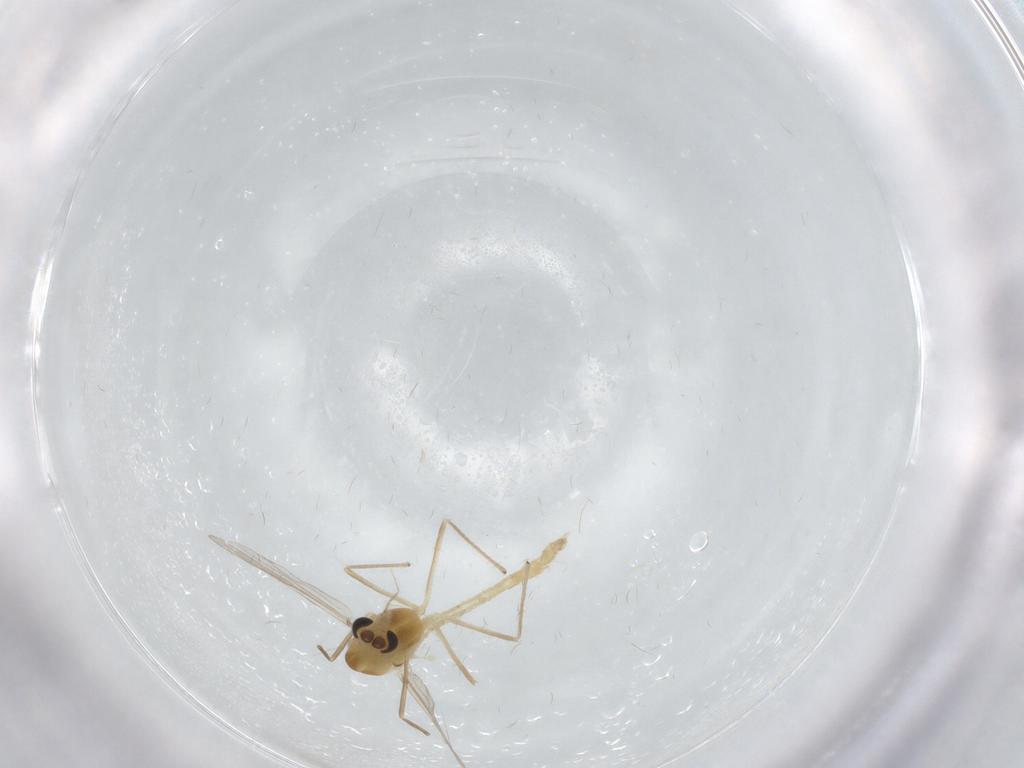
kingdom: Animalia
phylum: Arthropoda
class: Insecta
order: Diptera
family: Chironomidae
